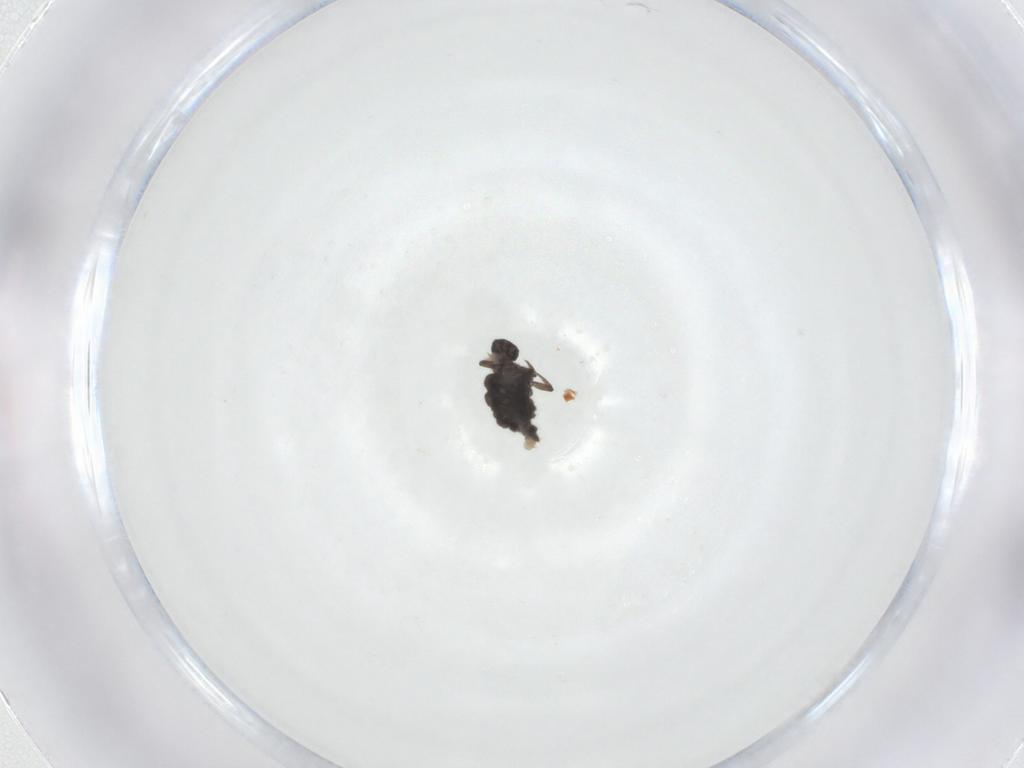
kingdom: Animalia
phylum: Arthropoda
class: Insecta
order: Coleoptera
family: Coccinellidae
